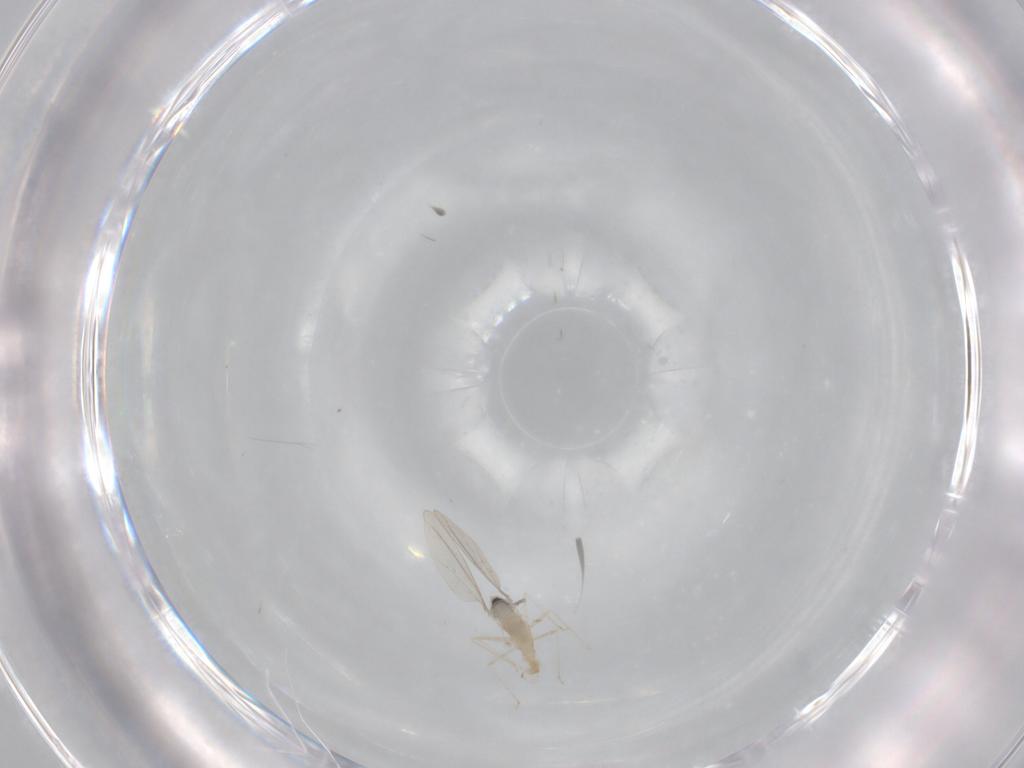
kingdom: Animalia
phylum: Arthropoda
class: Insecta
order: Diptera
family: Cecidomyiidae
